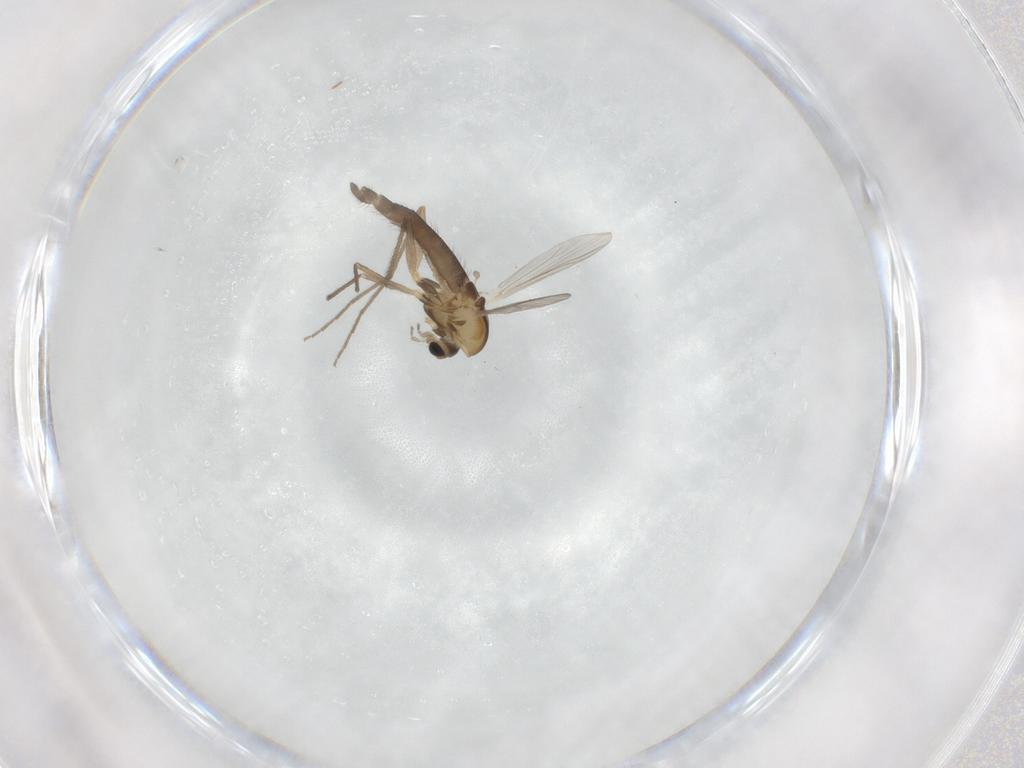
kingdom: Animalia
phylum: Arthropoda
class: Insecta
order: Diptera
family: Chironomidae
